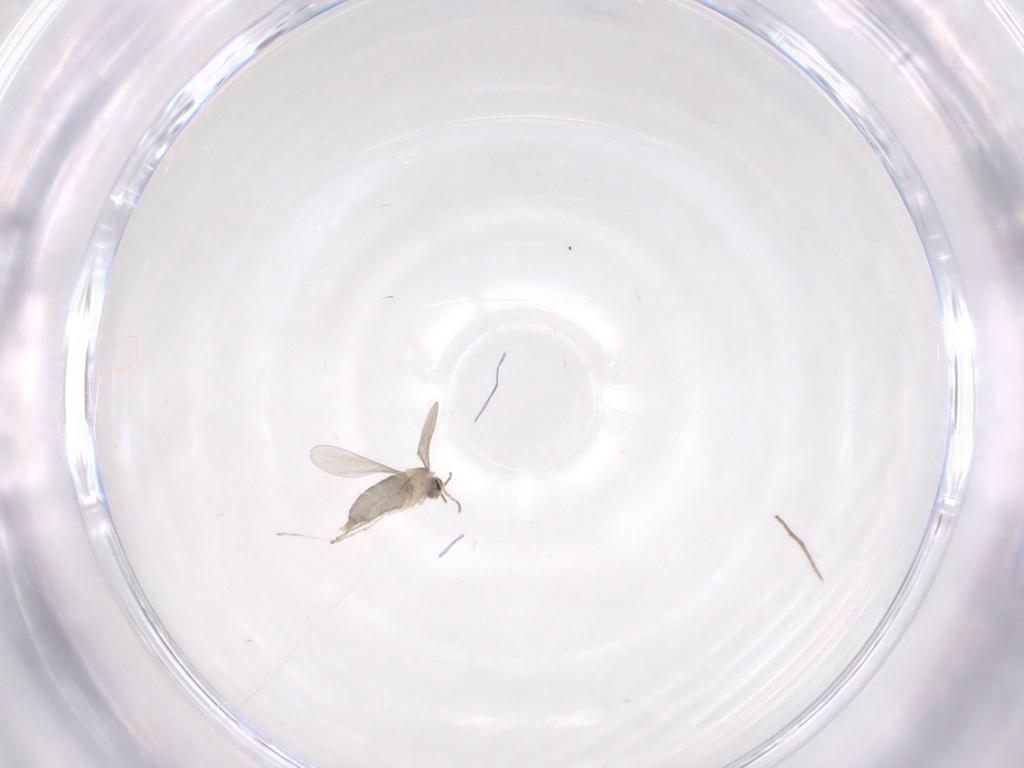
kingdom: Animalia
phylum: Arthropoda
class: Insecta
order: Diptera
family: Cecidomyiidae
